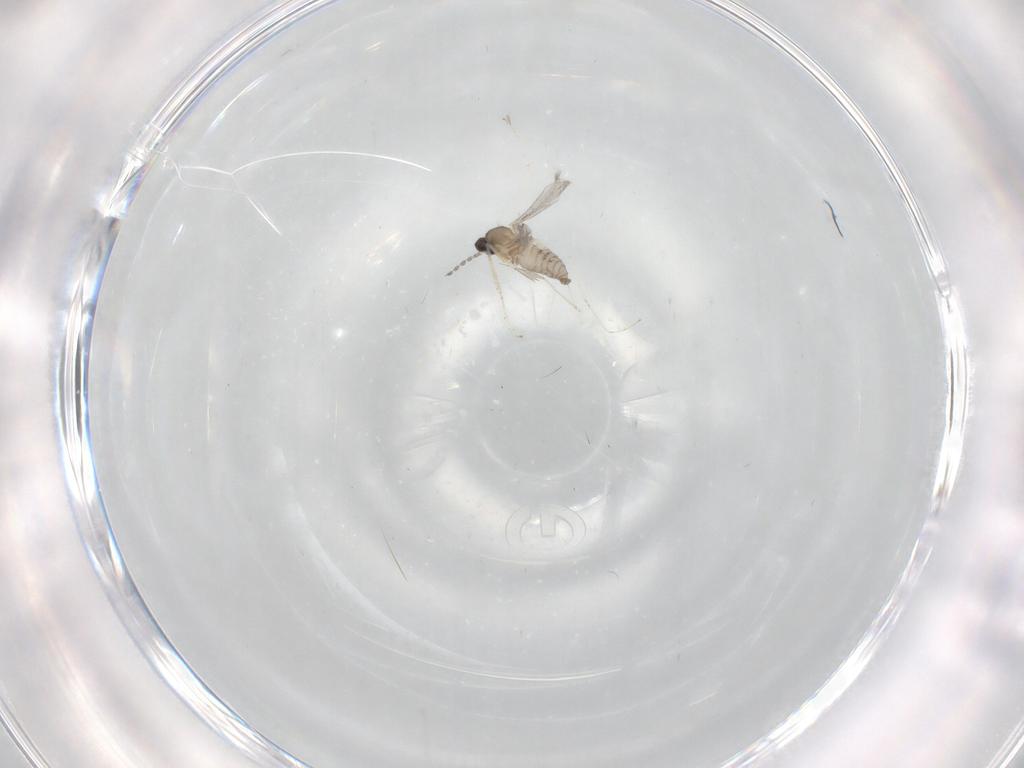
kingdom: Animalia
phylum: Arthropoda
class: Insecta
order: Diptera
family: Cecidomyiidae
